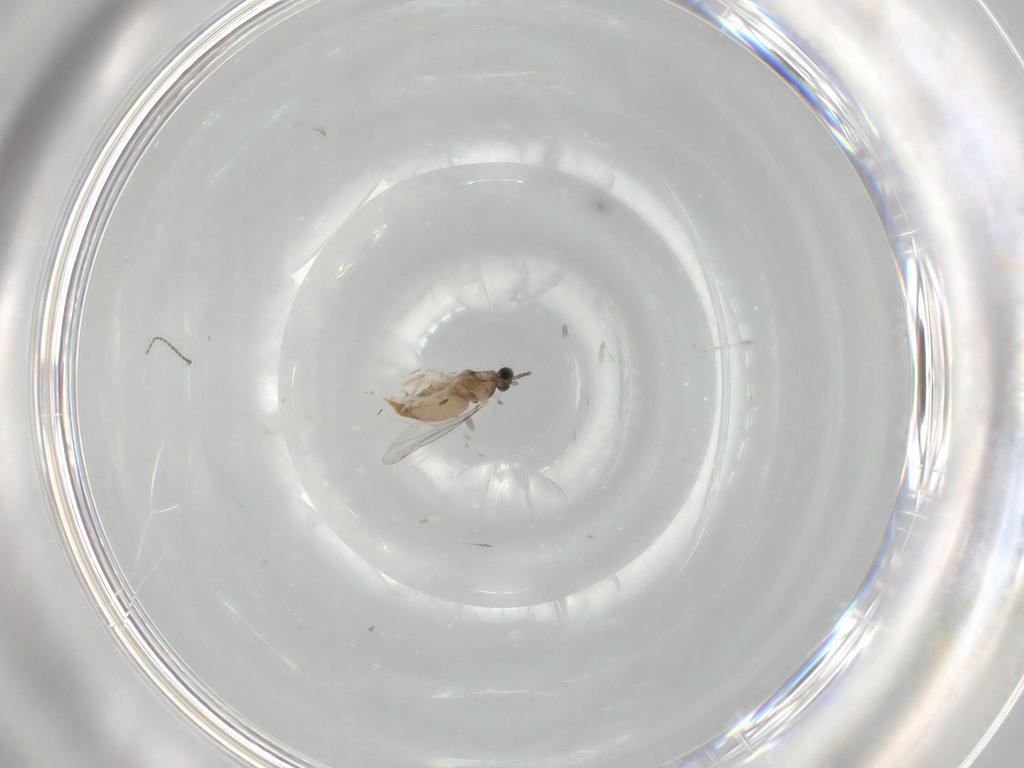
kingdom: Animalia
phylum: Arthropoda
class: Insecta
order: Diptera
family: Cecidomyiidae
